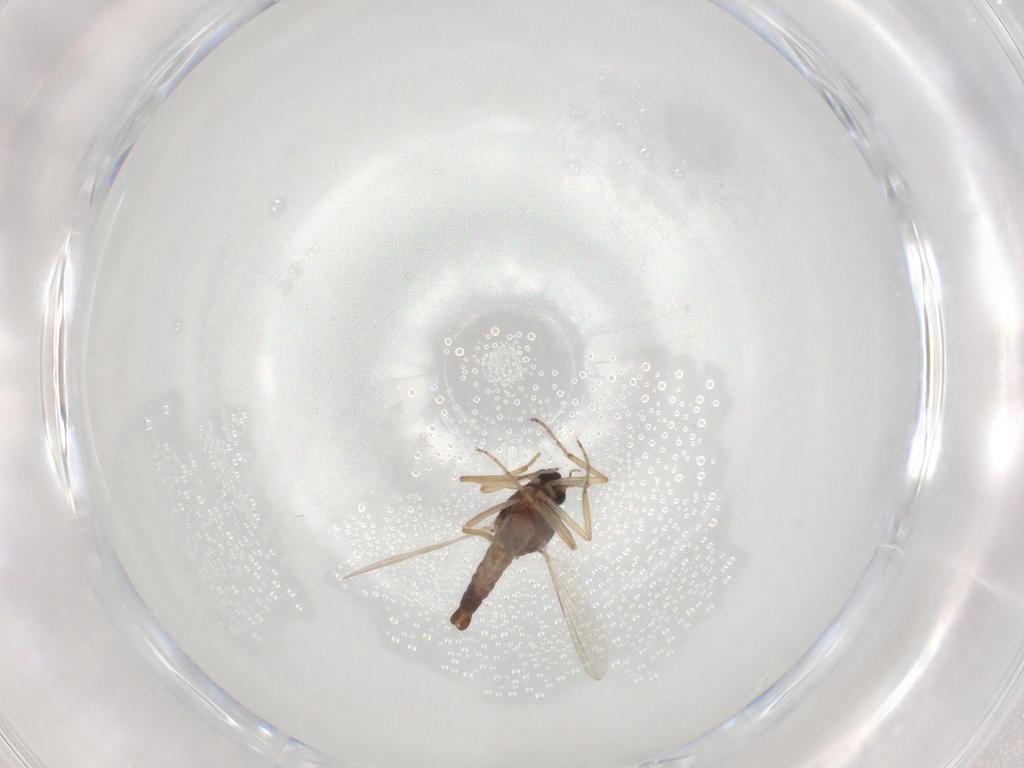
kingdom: Animalia
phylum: Arthropoda
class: Insecta
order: Diptera
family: Ceratopogonidae
